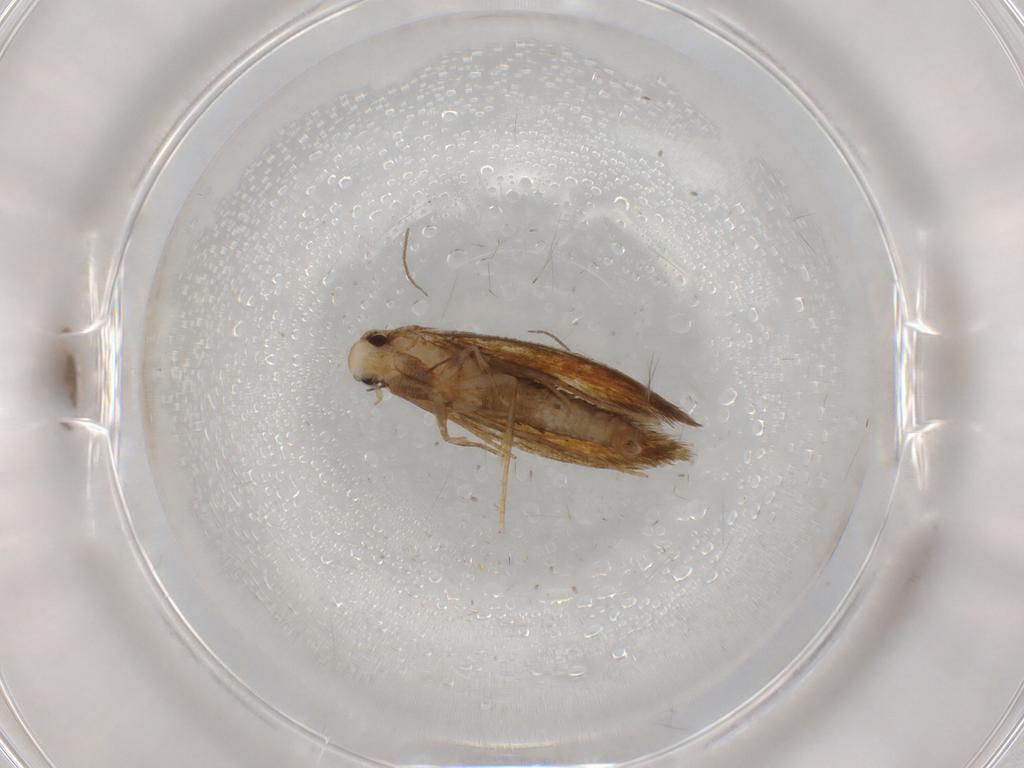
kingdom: Animalia
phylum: Arthropoda
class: Insecta
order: Lepidoptera
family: Tineidae
